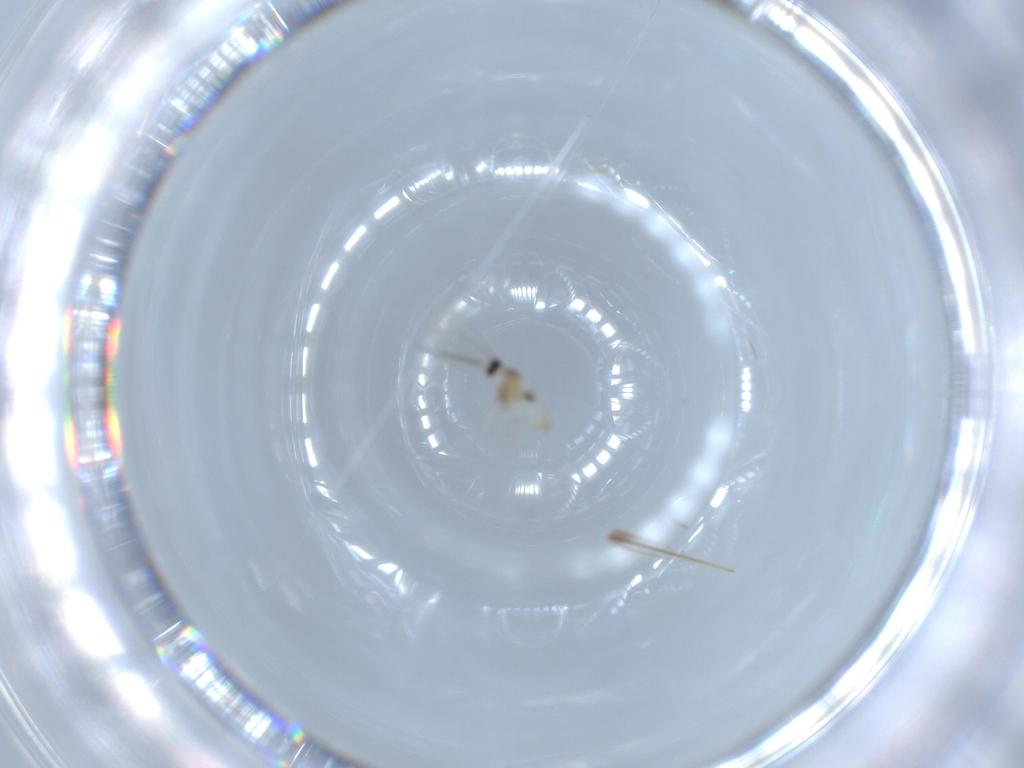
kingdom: Animalia
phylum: Arthropoda
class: Insecta
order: Diptera
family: Cecidomyiidae
